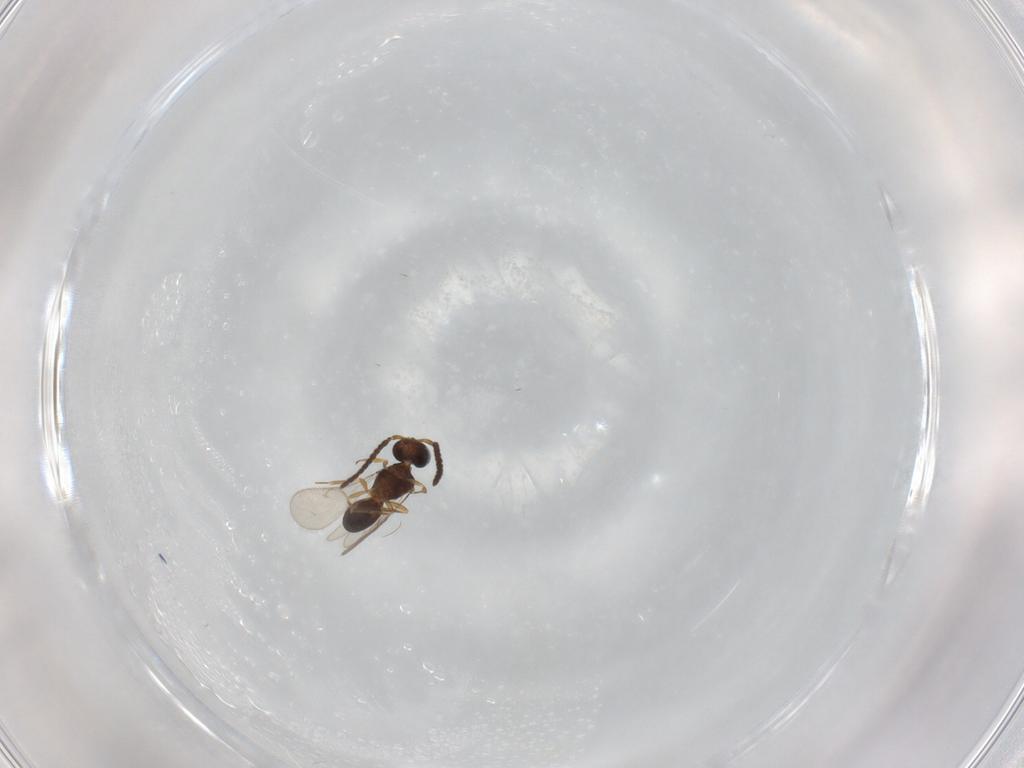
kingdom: Animalia
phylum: Arthropoda
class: Insecta
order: Hymenoptera
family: Scelionidae
